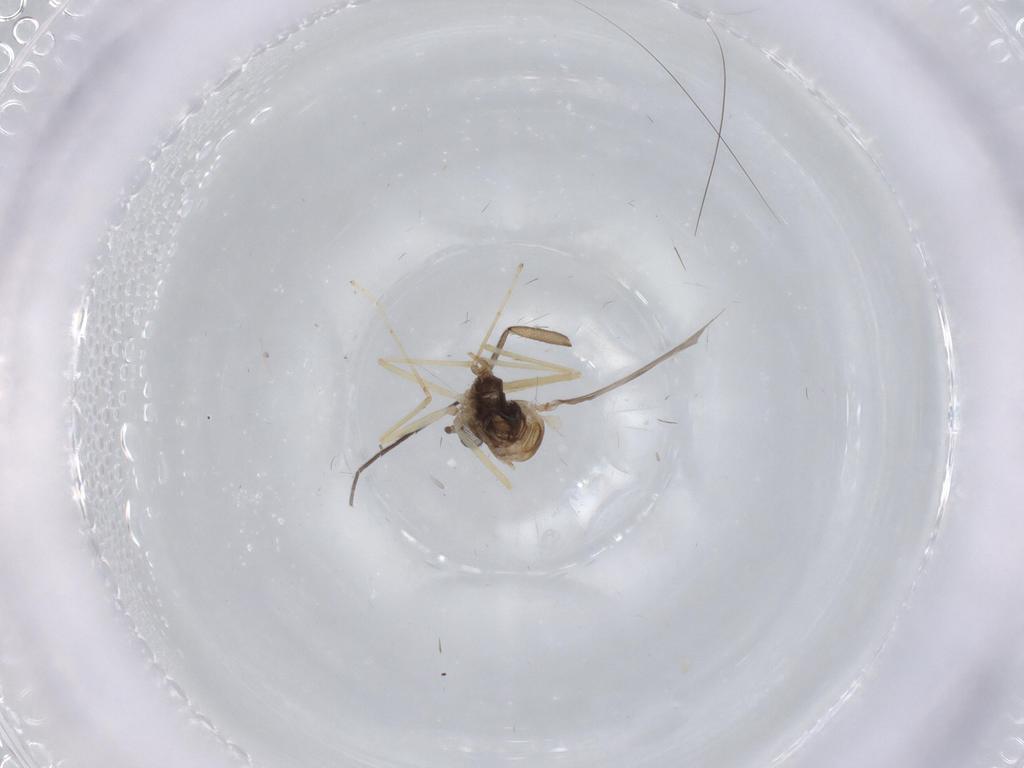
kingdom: Animalia
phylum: Arthropoda
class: Insecta
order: Diptera
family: Cecidomyiidae
